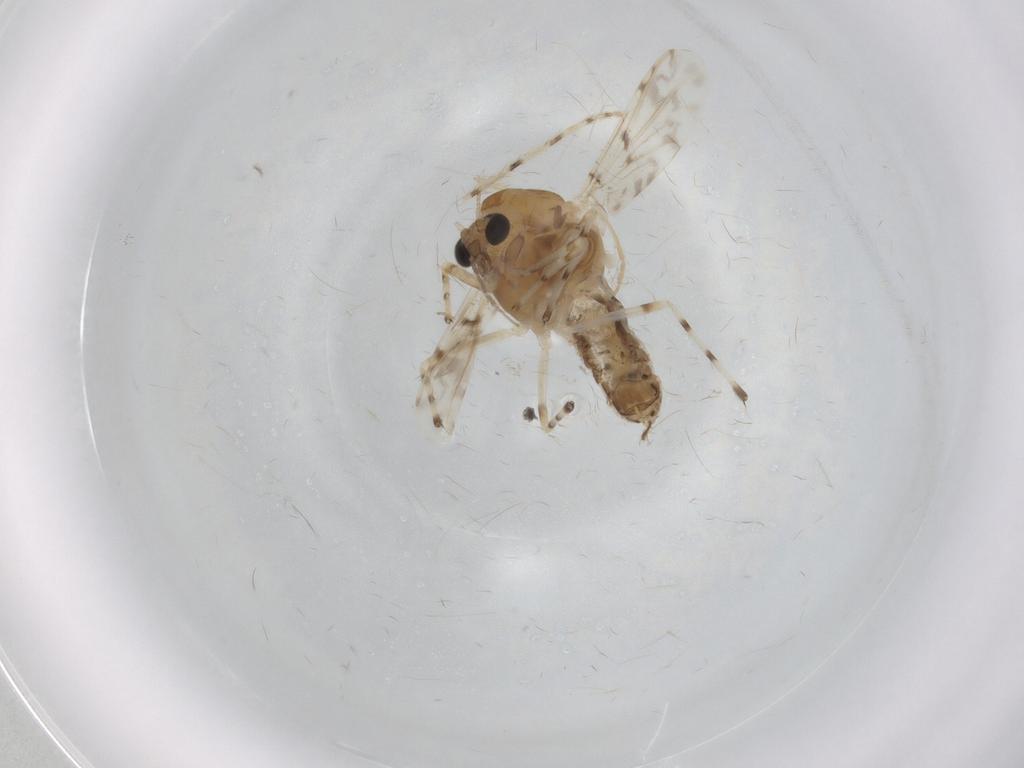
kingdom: Animalia
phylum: Arthropoda
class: Insecta
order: Diptera
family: Chironomidae
